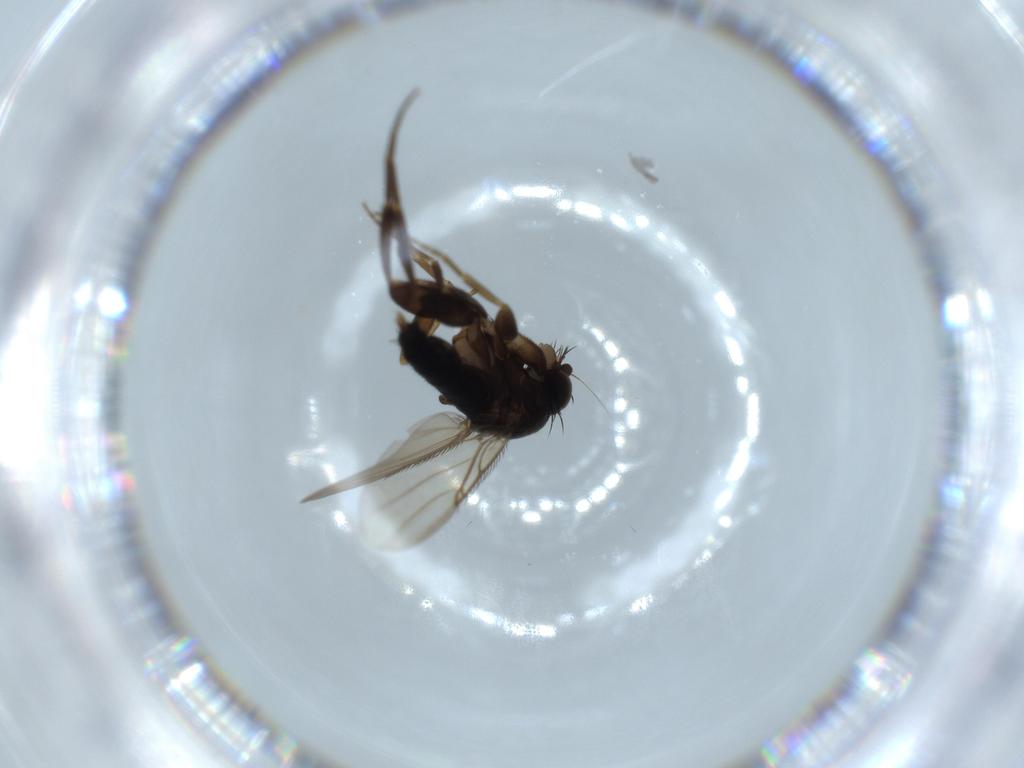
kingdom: Animalia
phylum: Arthropoda
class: Insecta
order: Diptera
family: Phoridae
